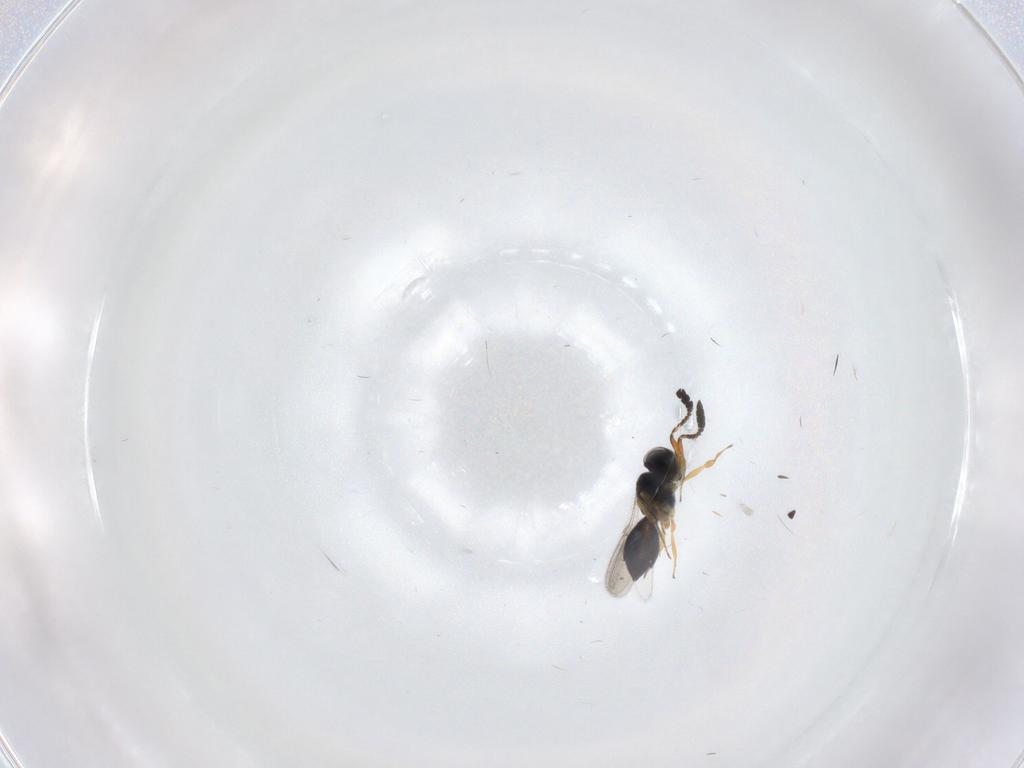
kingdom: Animalia
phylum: Arthropoda
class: Insecta
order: Hymenoptera
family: Scelionidae
